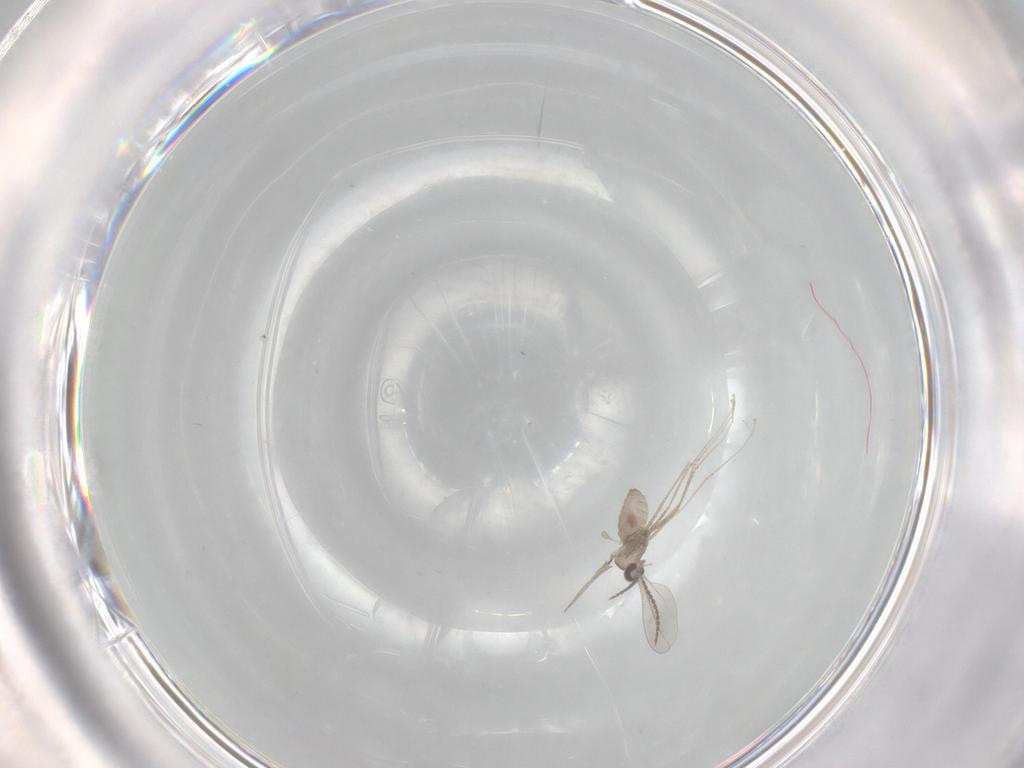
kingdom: Animalia
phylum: Arthropoda
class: Insecta
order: Diptera
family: Cecidomyiidae
